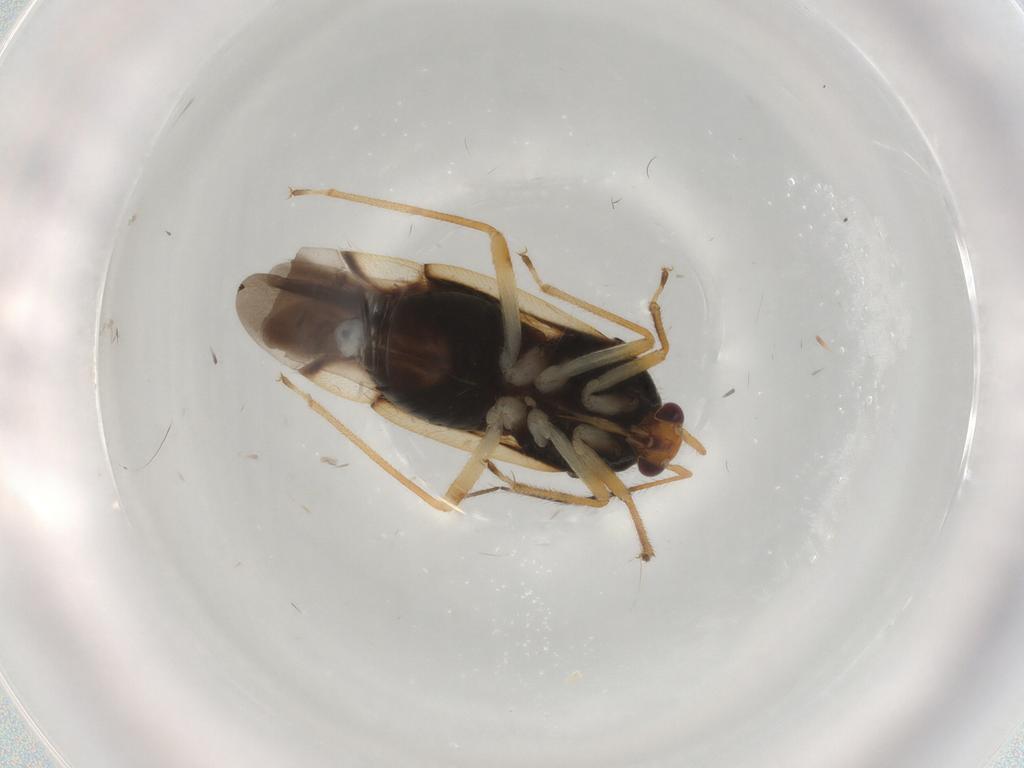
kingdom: Animalia
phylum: Arthropoda
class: Insecta
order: Hemiptera
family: Miridae
